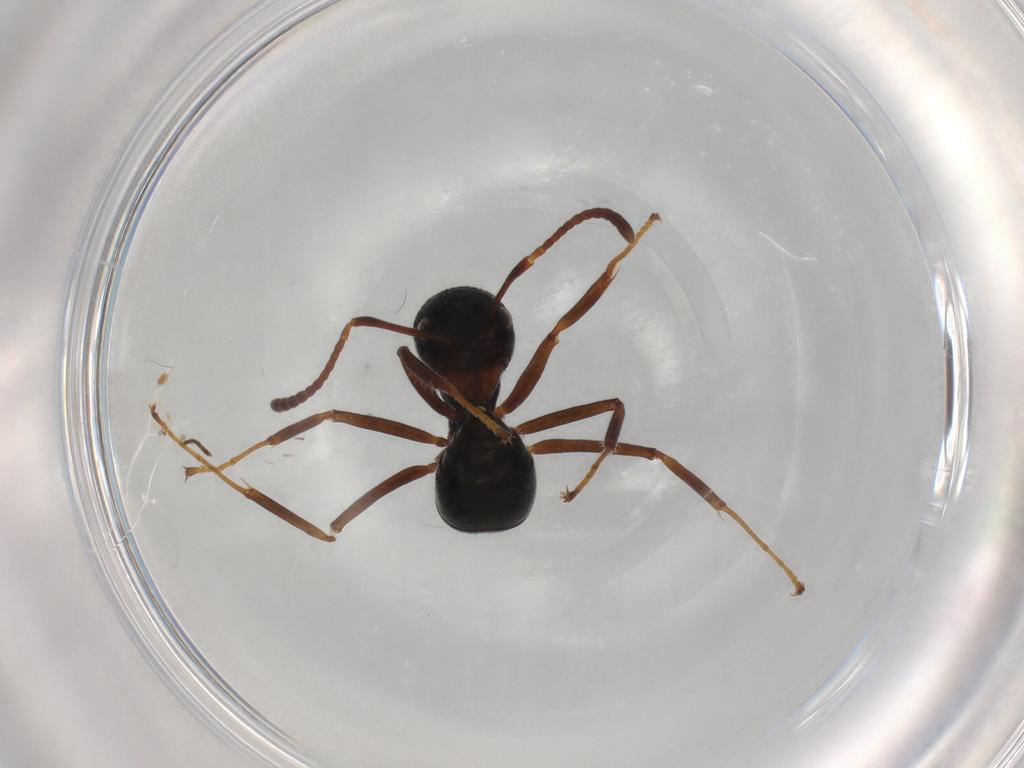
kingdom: Animalia
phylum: Arthropoda
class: Insecta
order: Hymenoptera
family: Formicidae
